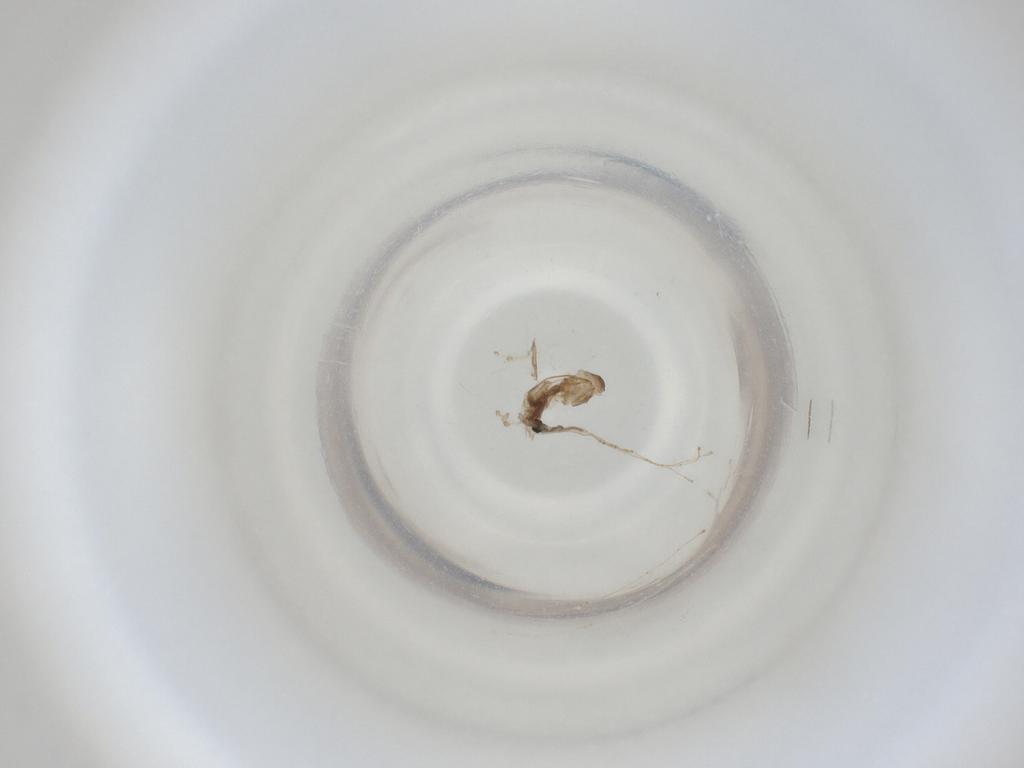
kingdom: Animalia
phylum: Arthropoda
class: Insecta
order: Diptera
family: Cecidomyiidae
